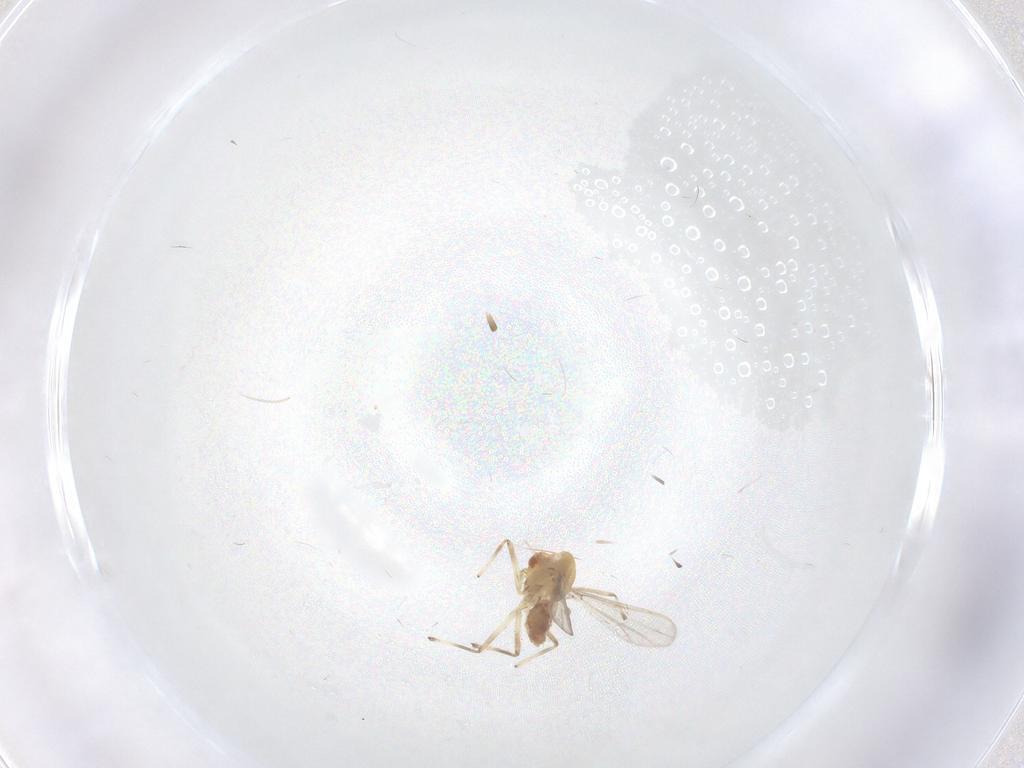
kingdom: Animalia
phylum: Arthropoda
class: Insecta
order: Diptera
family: Chironomidae
